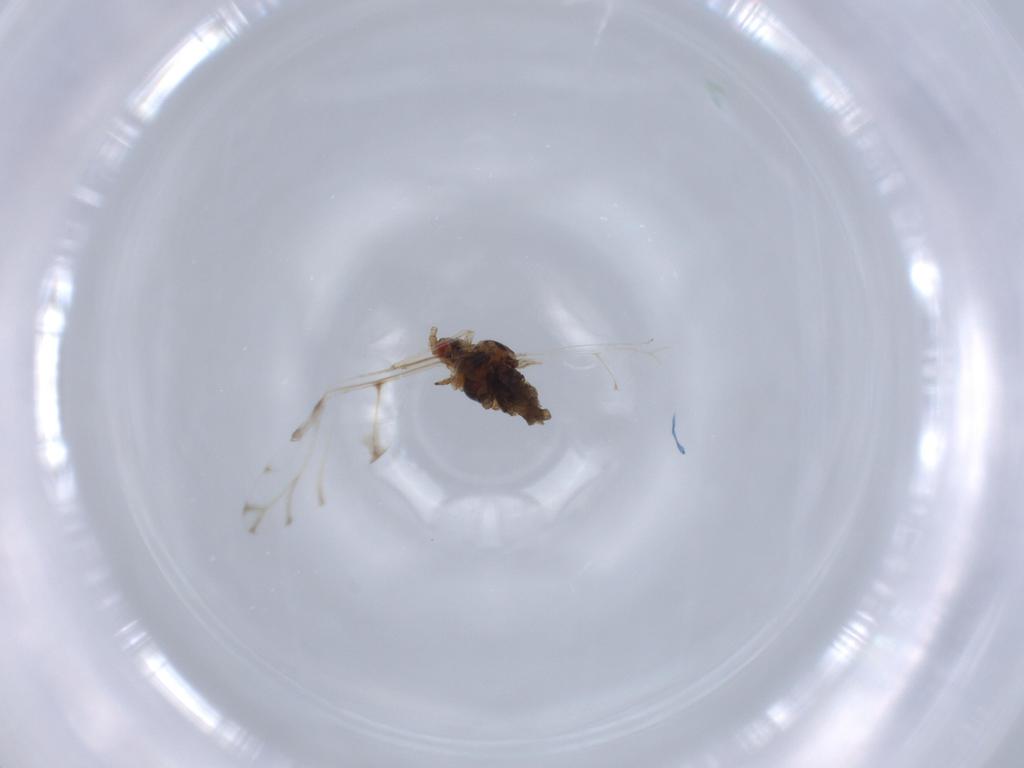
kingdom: Animalia
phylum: Arthropoda
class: Insecta
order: Hemiptera
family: Aphididae
